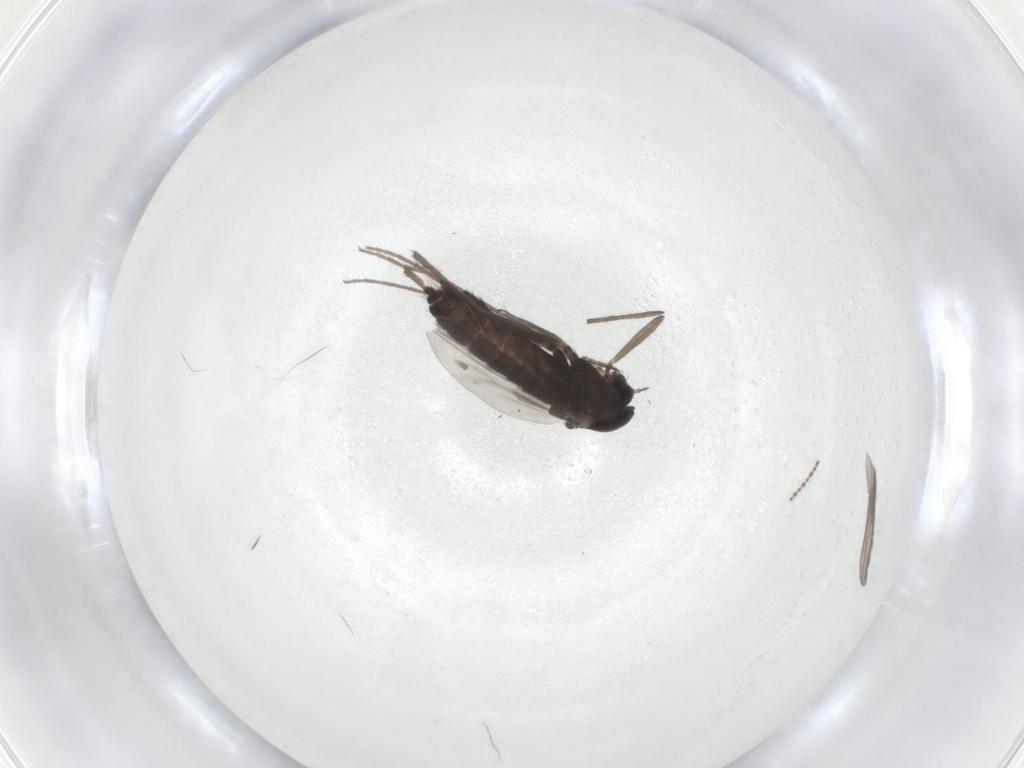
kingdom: Animalia
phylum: Arthropoda
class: Insecta
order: Diptera
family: Chironomidae
